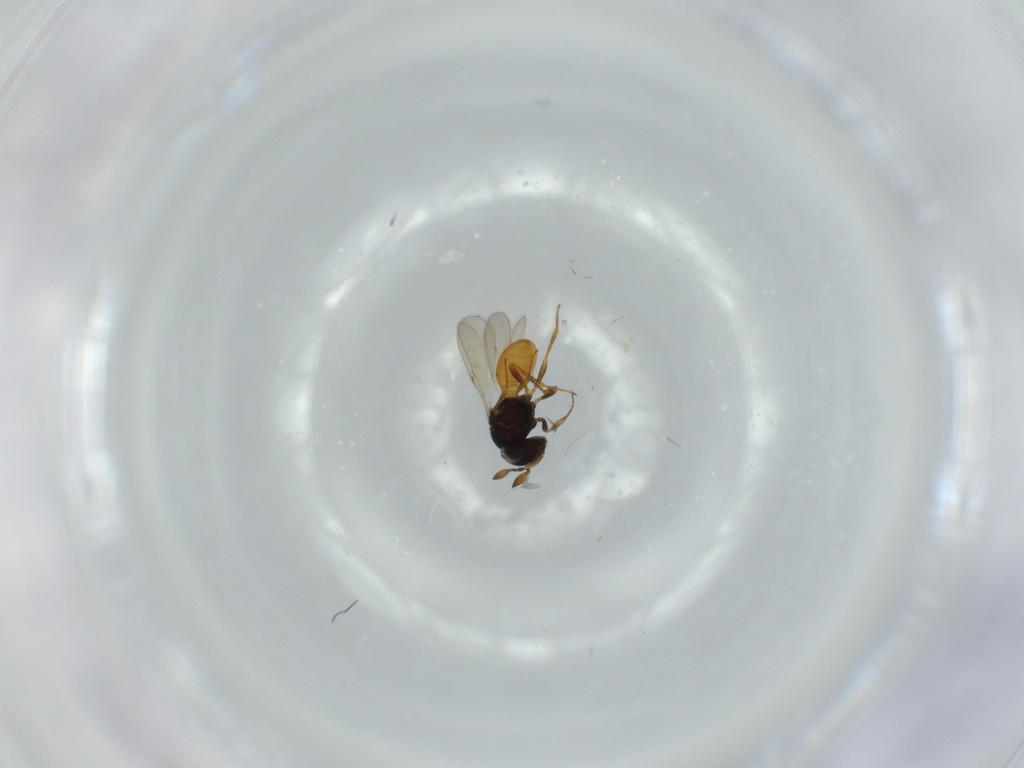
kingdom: Animalia
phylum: Arthropoda
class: Insecta
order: Hymenoptera
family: Scelionidae
